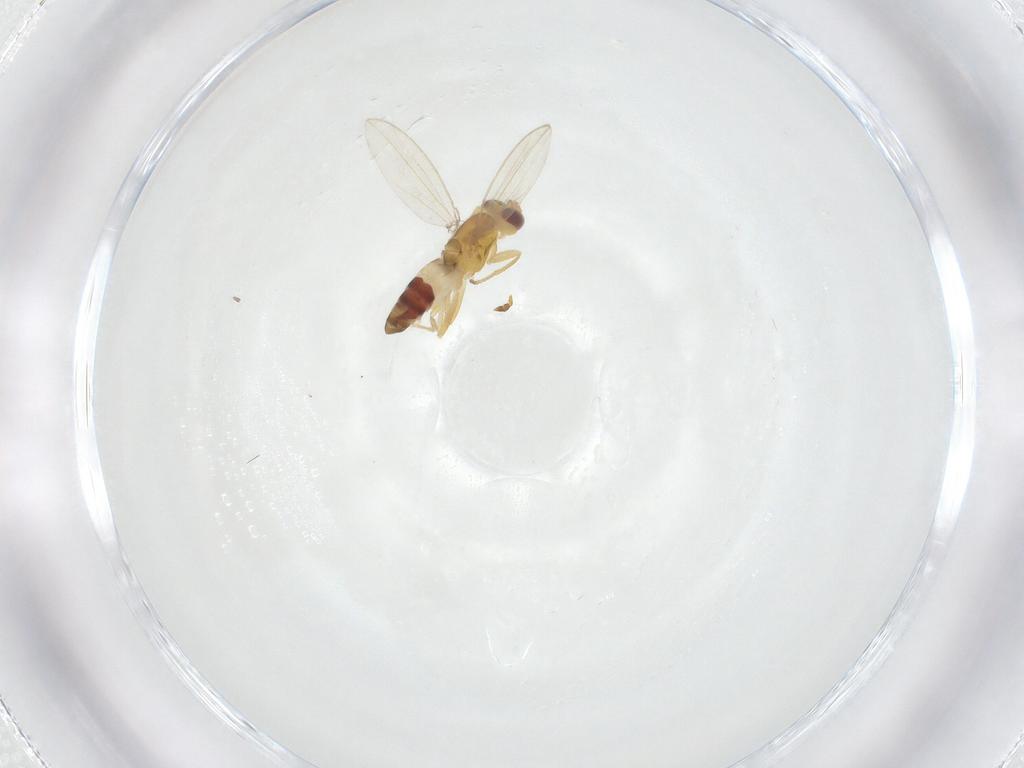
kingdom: Animalia
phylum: Arthropoda
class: Insecta
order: Diptera
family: Periscelididae
